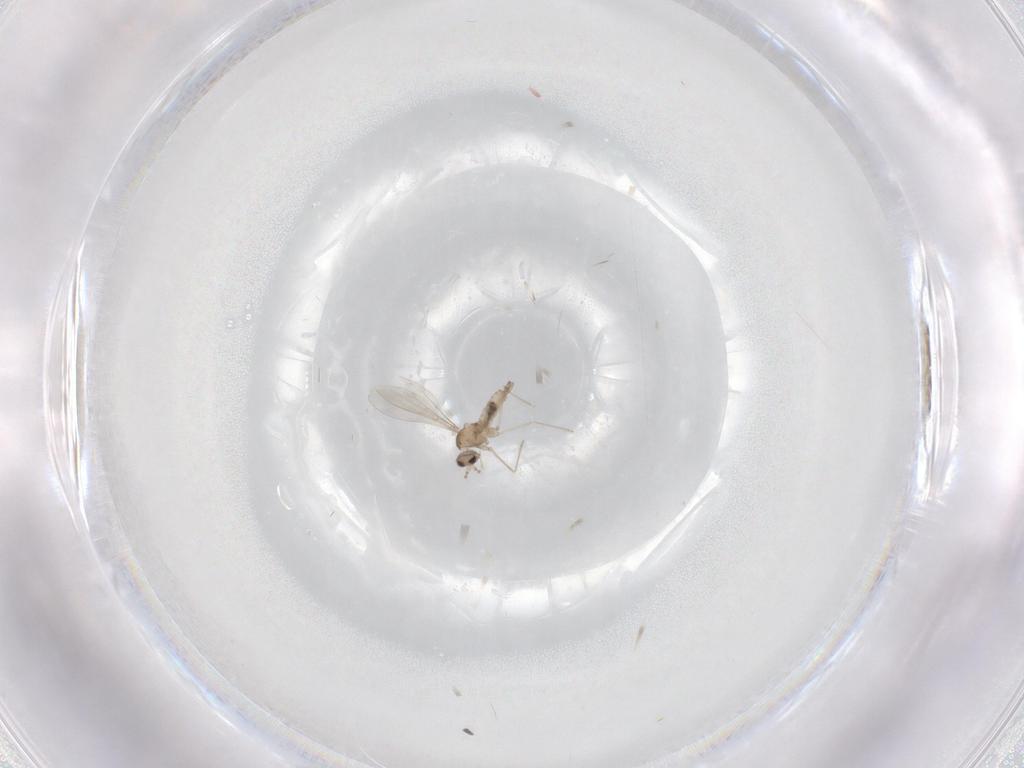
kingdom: Animalia
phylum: Arthropoda
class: Insecta
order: Diptera
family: Cecidomyiidae
